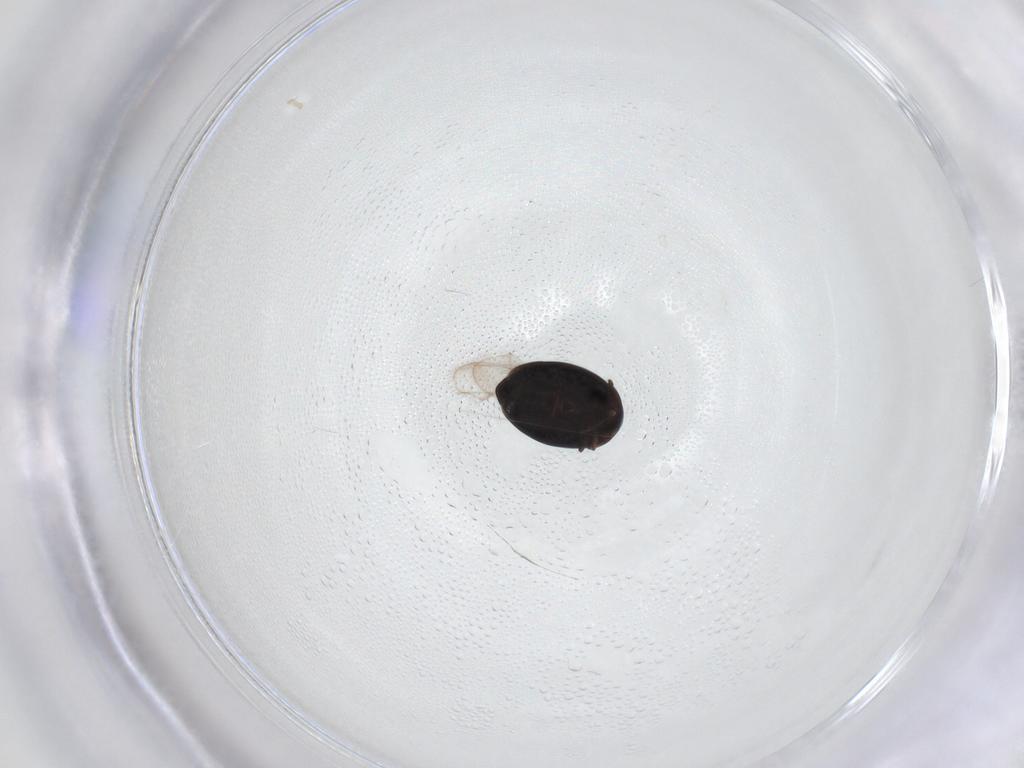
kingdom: Animalia
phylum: Arthropoda
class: Insecta
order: Coleoptera
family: Corylophidae
